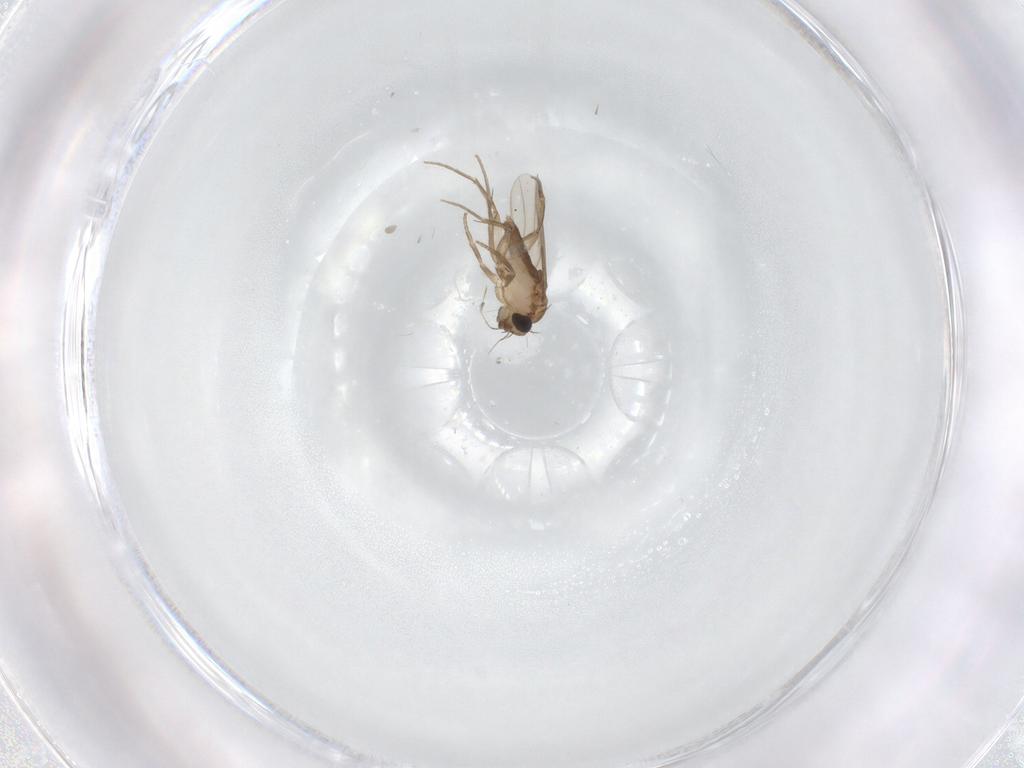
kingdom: Animalia
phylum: Arthropoda
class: Insecta
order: Diptera
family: Phoridae
